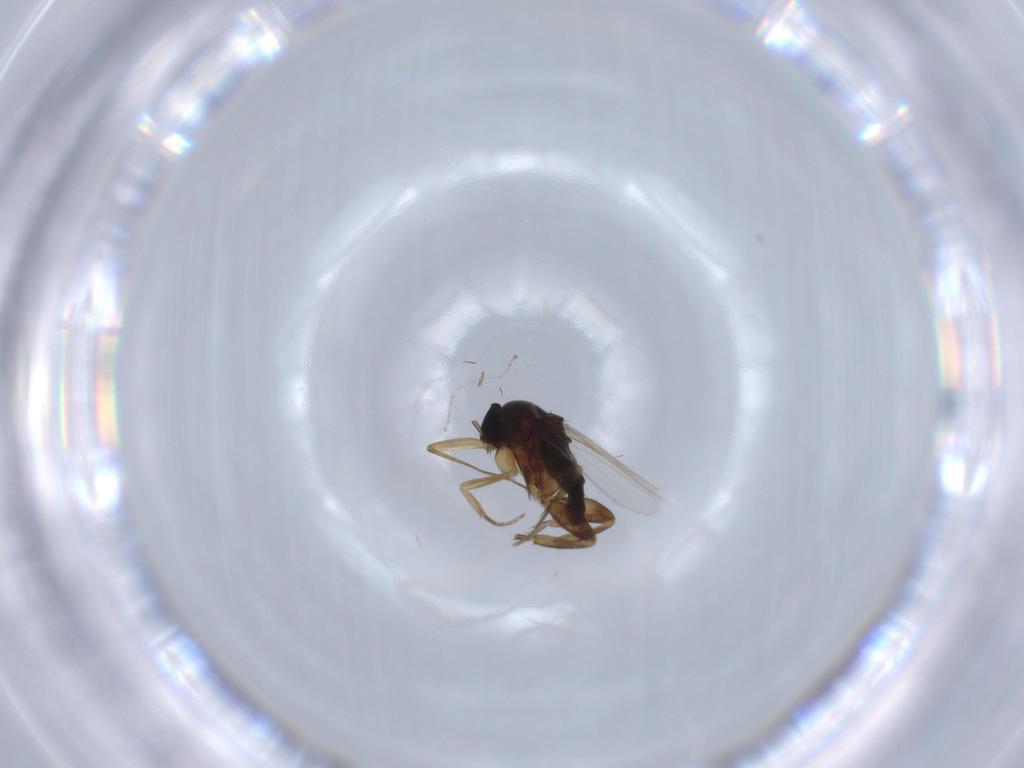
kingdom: Animalia
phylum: Arthropoda
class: Insecta
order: Diptera
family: Phoridae
